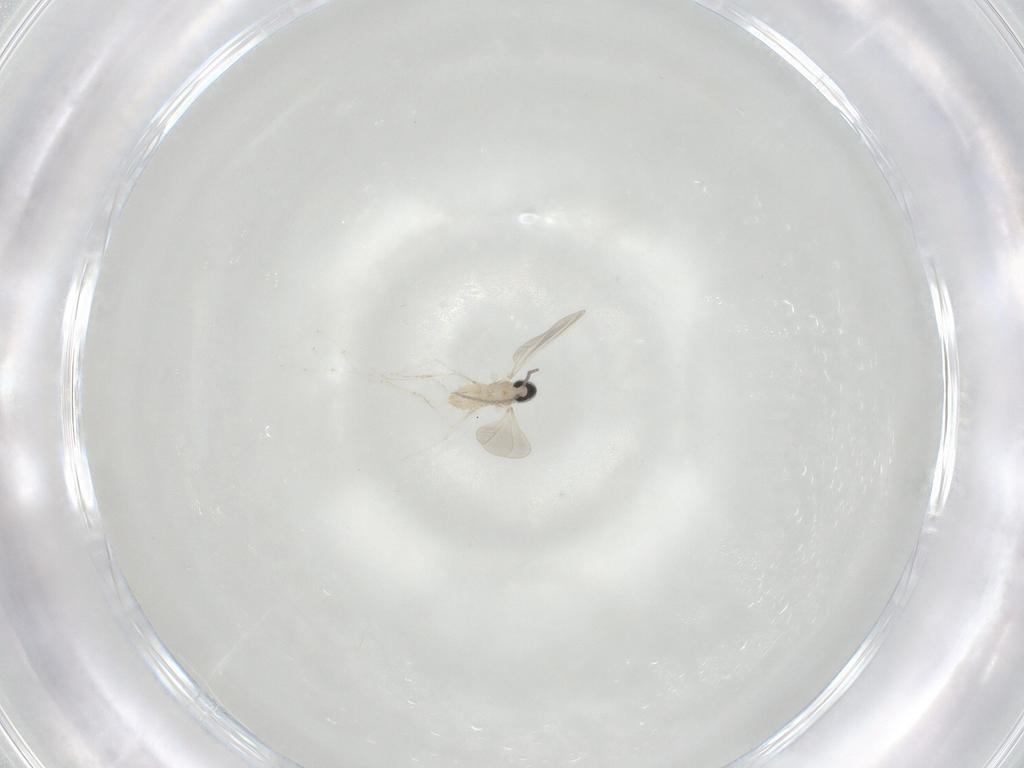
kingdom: Animalia
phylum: Arthropoda
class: Insecta
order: Diptera
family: Cecidomyiidae
